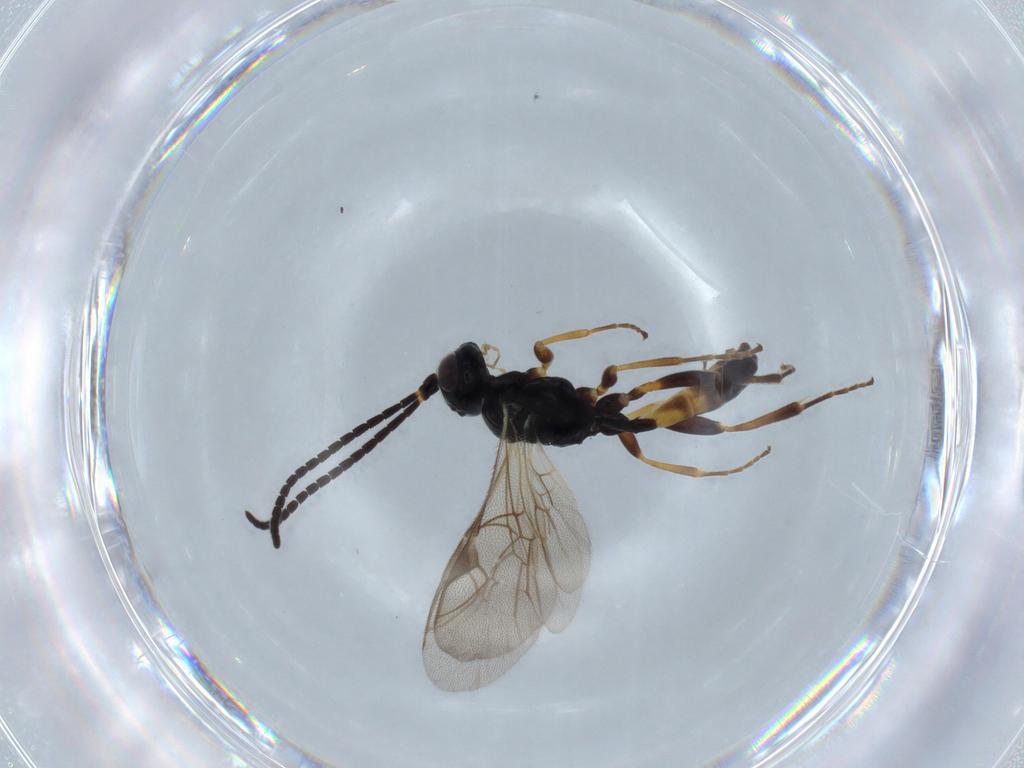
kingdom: Animalia
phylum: Arthropoda
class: Insecta
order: Hymenoptera
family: Ichneumonidae
